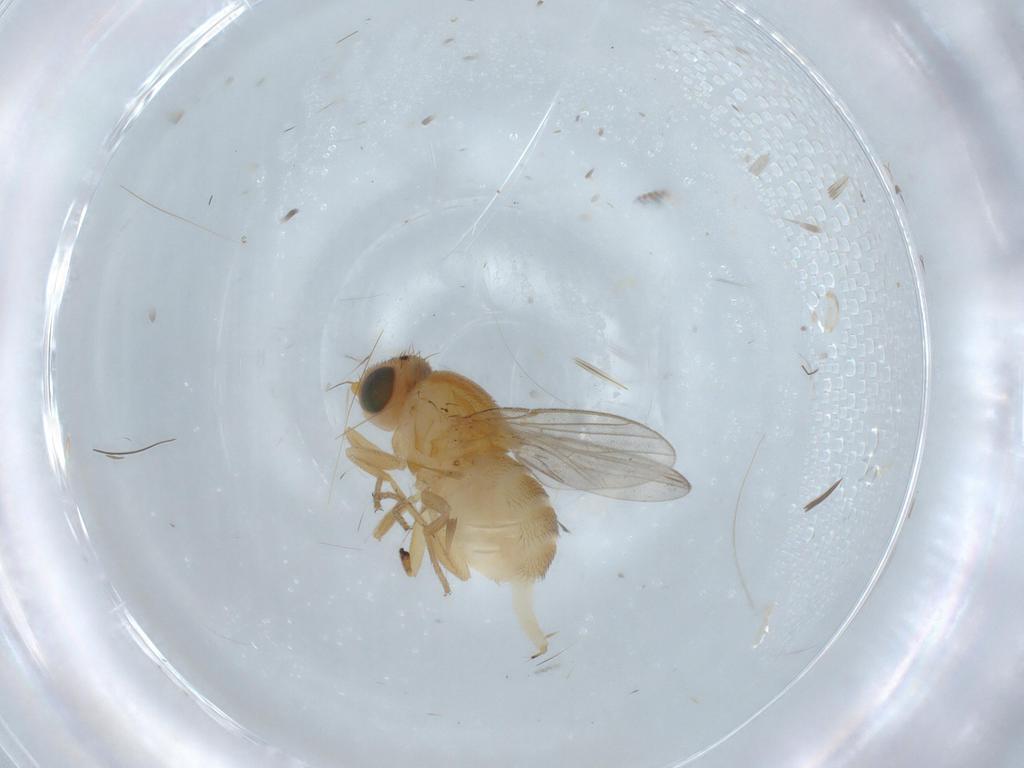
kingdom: Animalia
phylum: Arthropoda
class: Insecta
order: Diptera
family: Chloropidae
